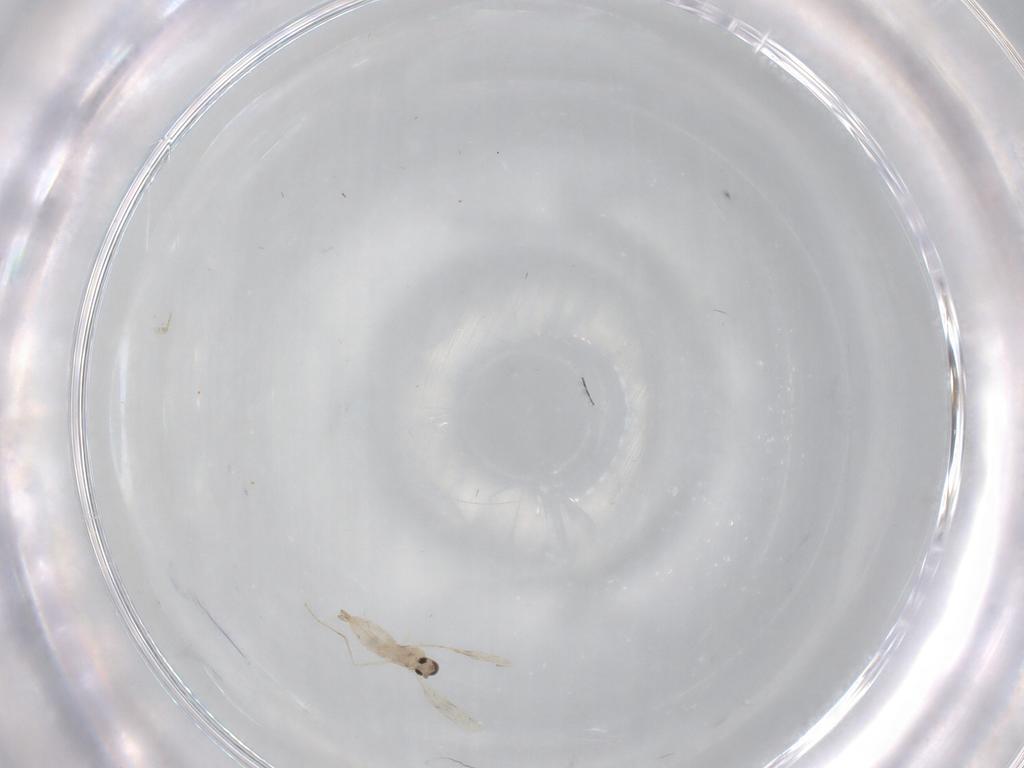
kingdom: Animalia
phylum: Arthropoda
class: Insecta
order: Diptera
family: Cecidomyiidae
